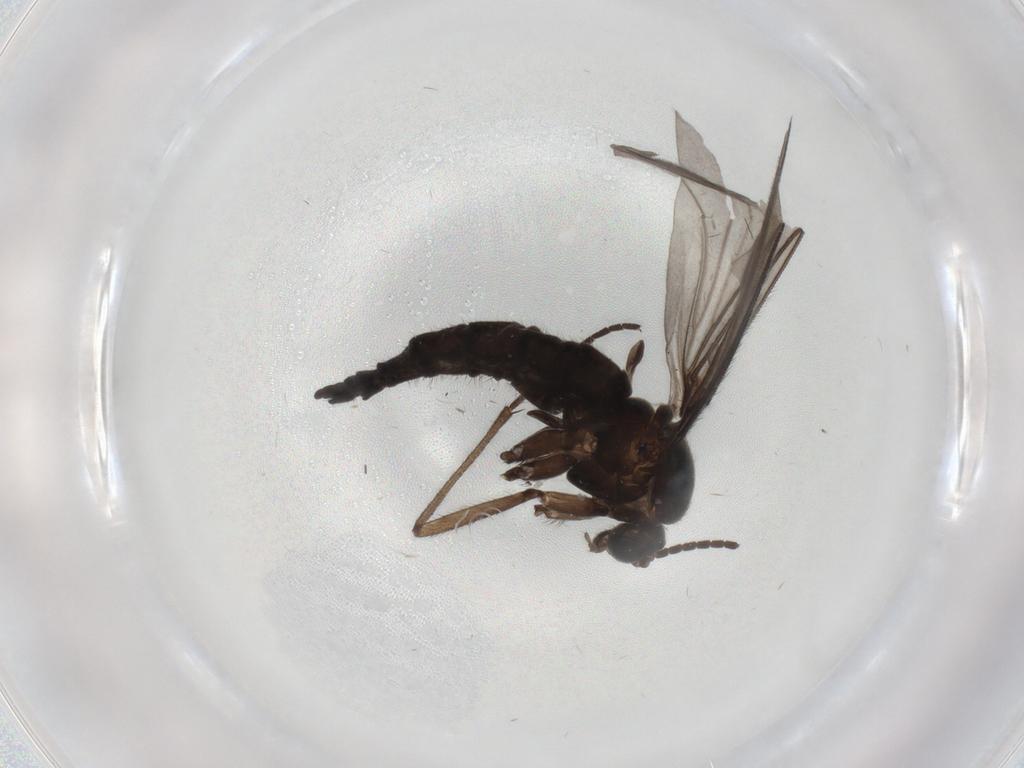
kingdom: Animalia
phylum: Arthropoda
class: Insecta
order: Diptera
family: Sciaridae
